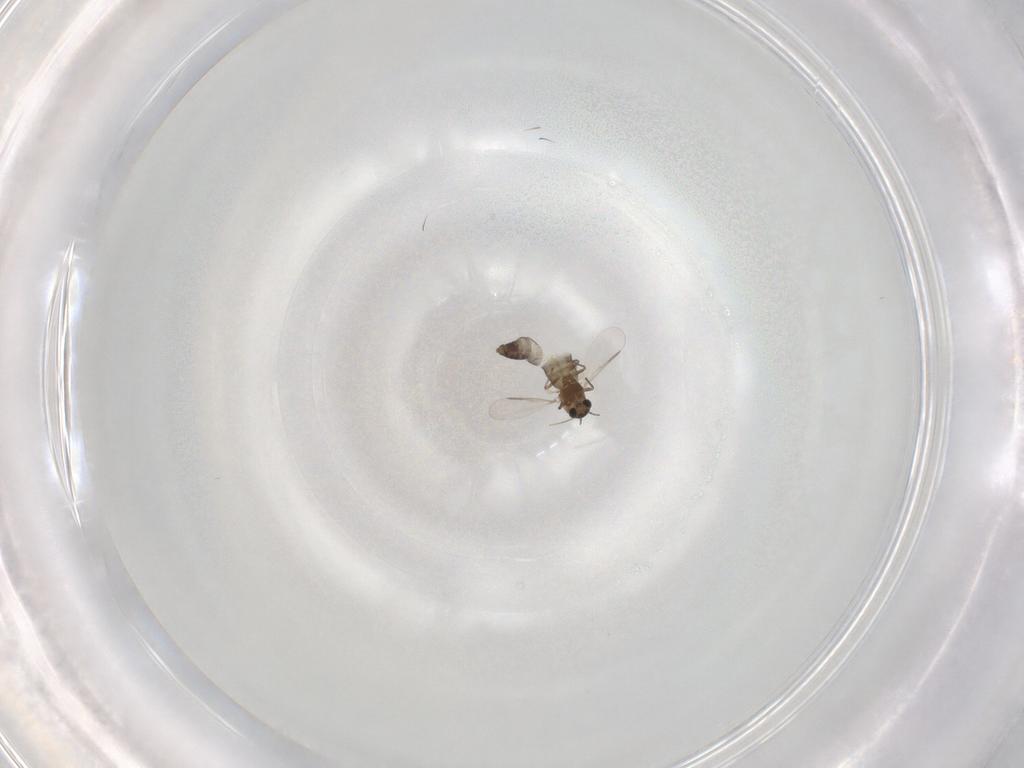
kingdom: Animalia
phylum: Arthropoda
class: Insecta
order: Diptera
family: Chironomidae
